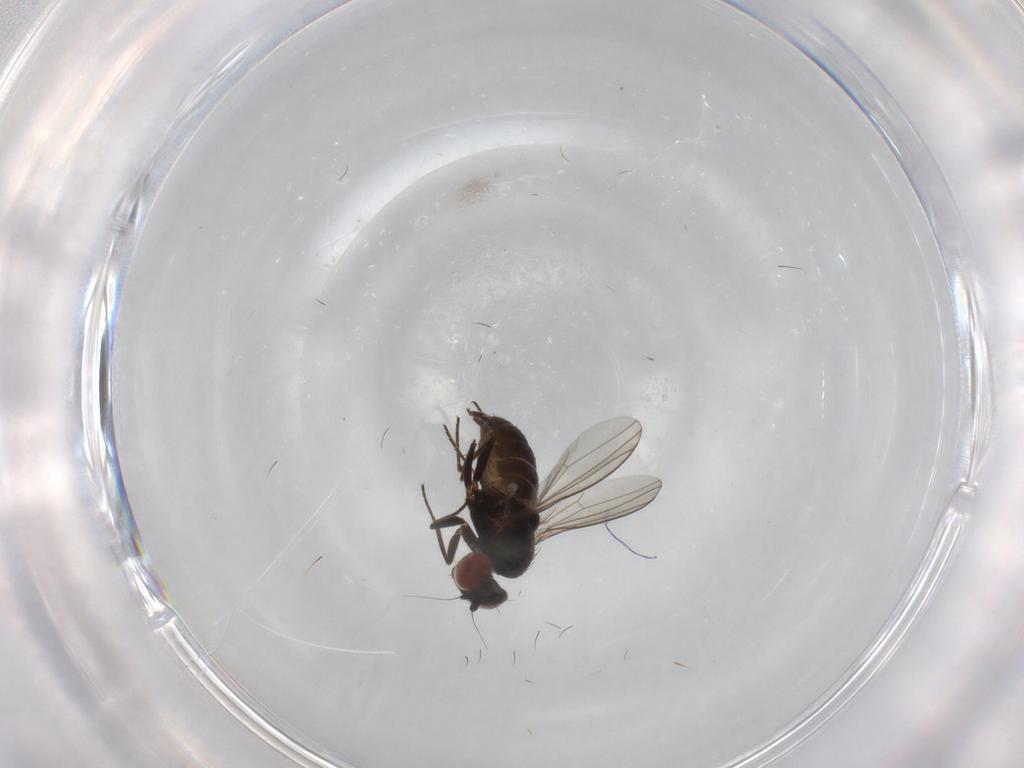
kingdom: Animalia
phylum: Arthropoda
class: Insecta
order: Diptera
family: Dolichopodidae
